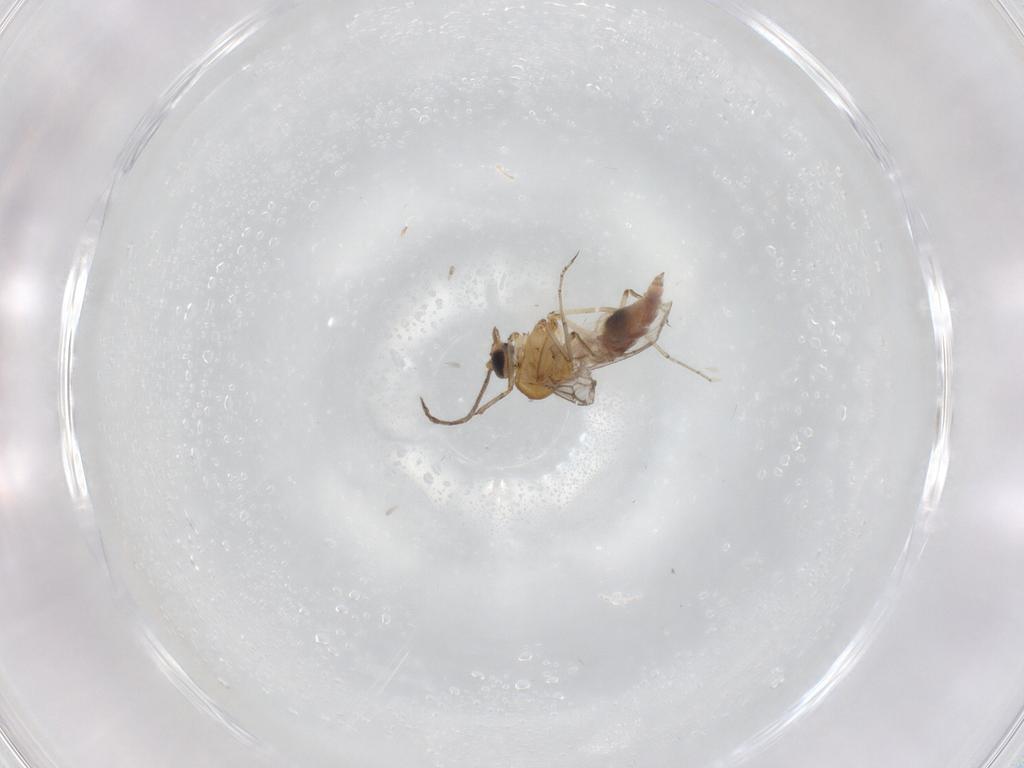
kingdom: Animalia
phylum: Arthropoda
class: Insecta
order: Diptera
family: Ceratopogonidae
